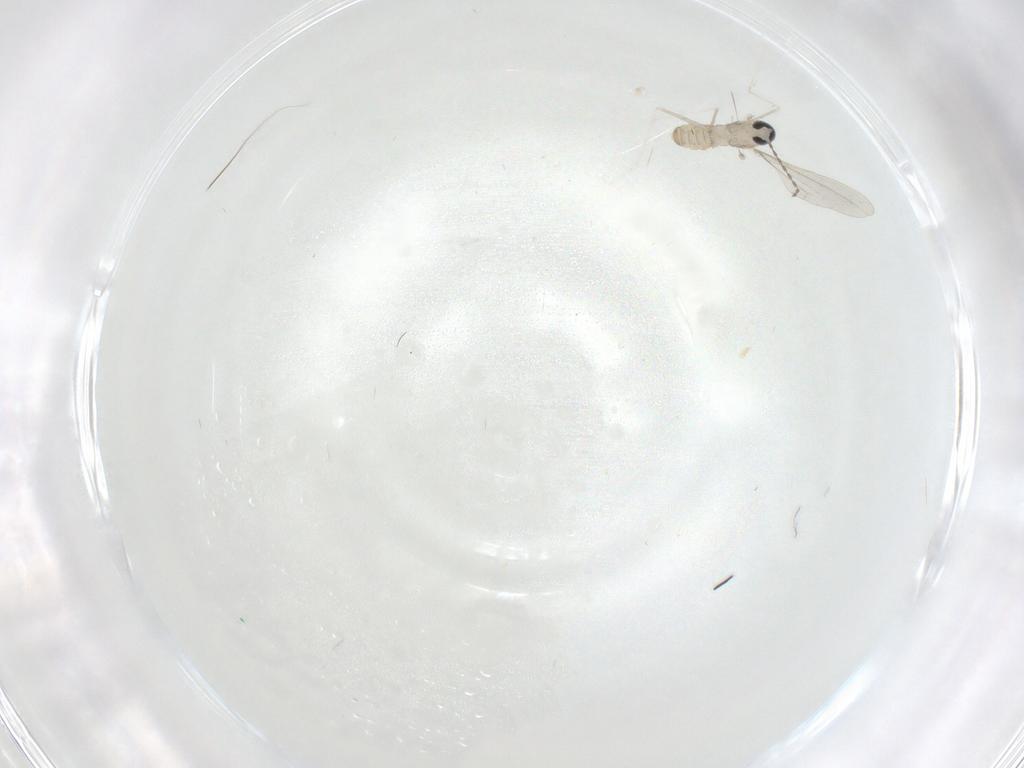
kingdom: Animalia
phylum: Arthropoda
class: Insecta
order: Diptera
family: Cecidomyiidae
